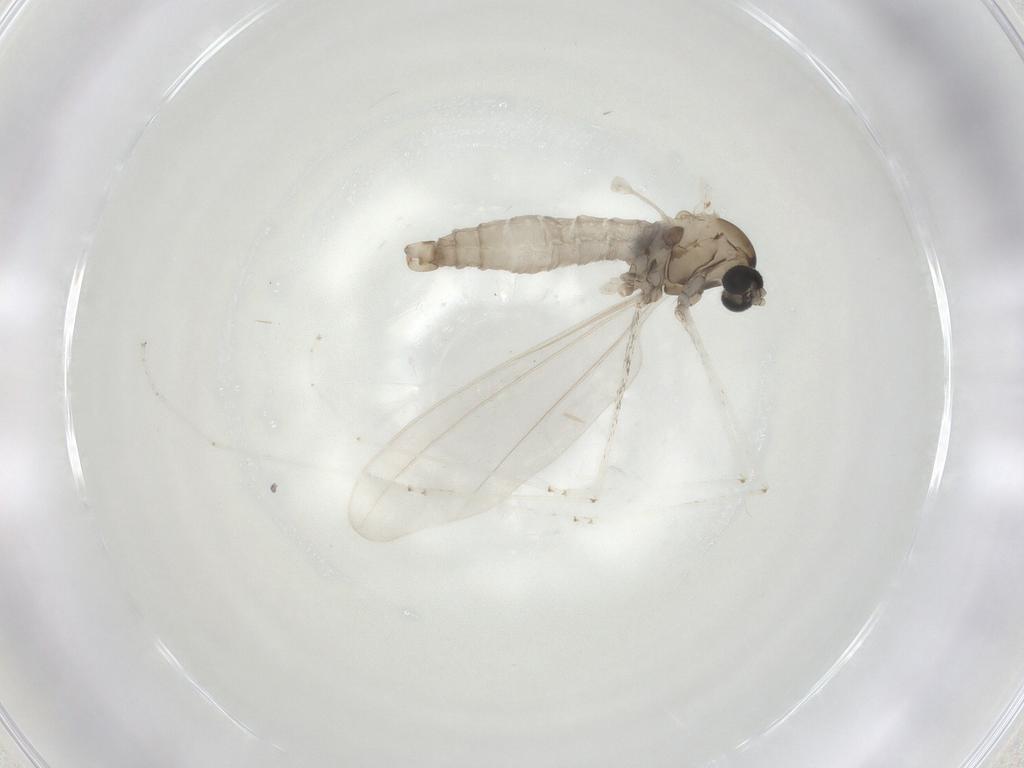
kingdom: Animalia
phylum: Arthropoda
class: Insecta
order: Diptera
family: Cecidomyiidae
